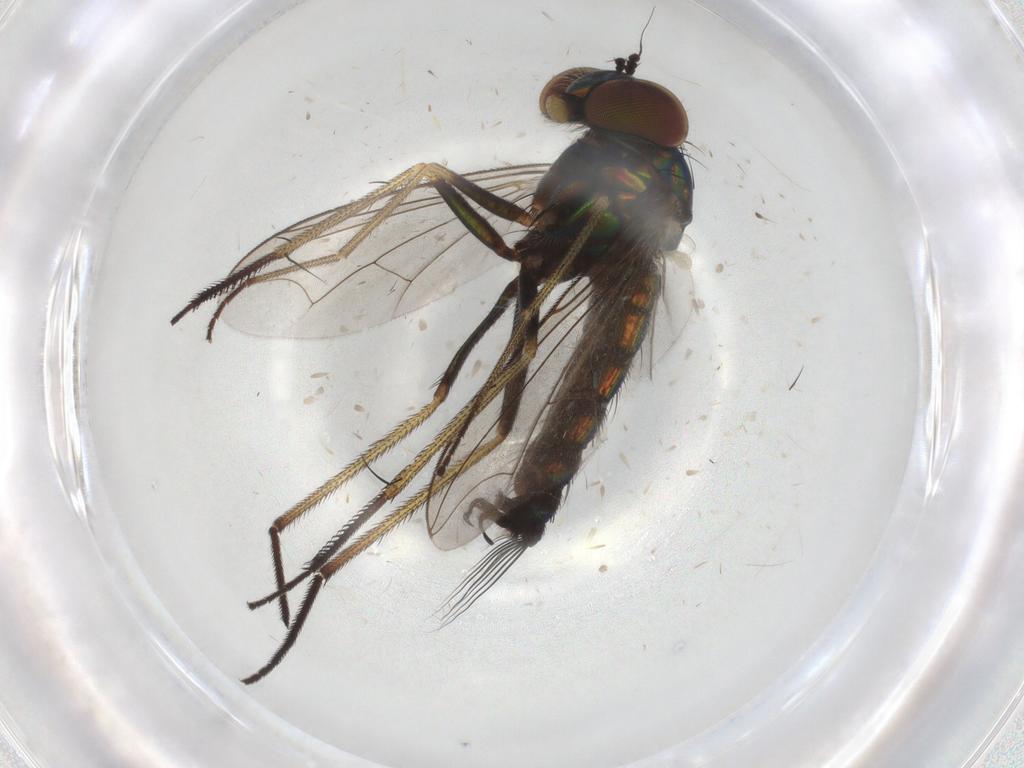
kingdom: Animalia
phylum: Arthropoda
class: Insecta
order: Diptera
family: Dolichopodidae
